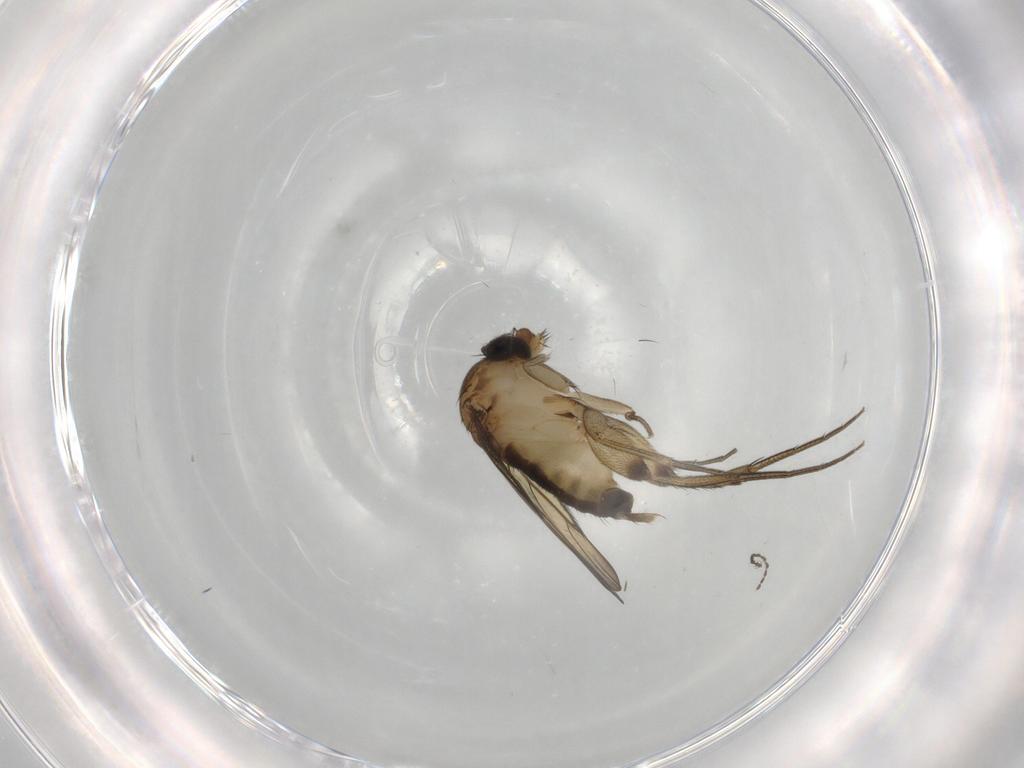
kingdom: Animalia
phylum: Arthropoda
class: Insecta
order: Diptera
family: Phoridae
